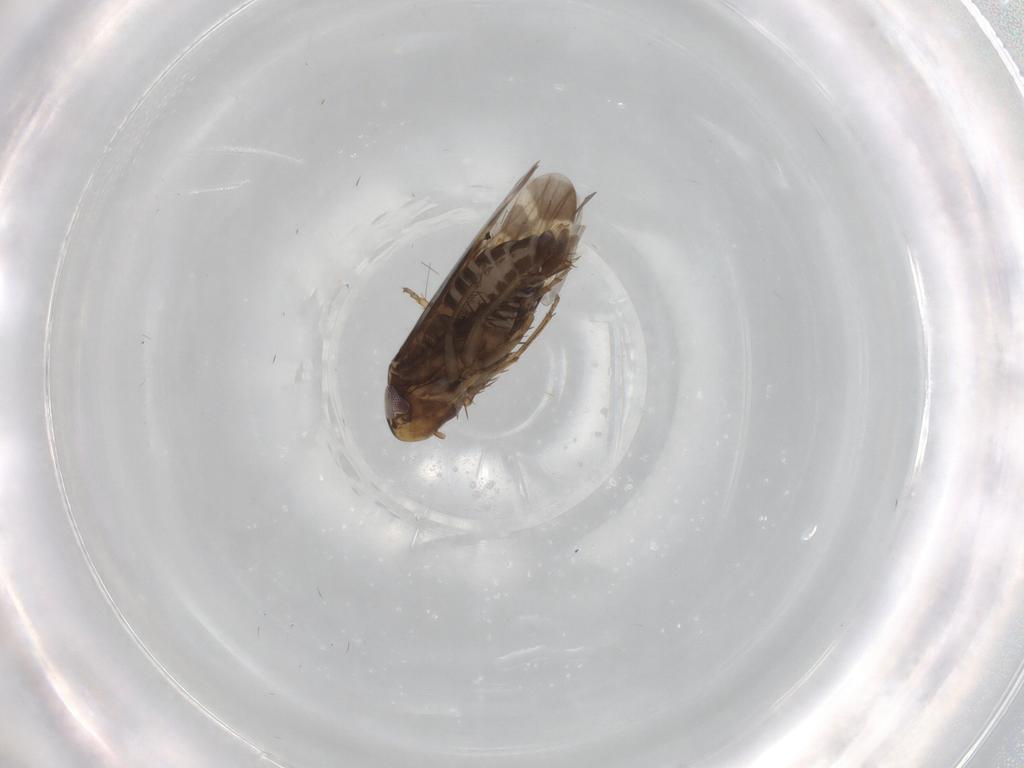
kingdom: Animalia
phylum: Arthropoda
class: Insecta
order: Hemiptera
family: Cicadellidae
